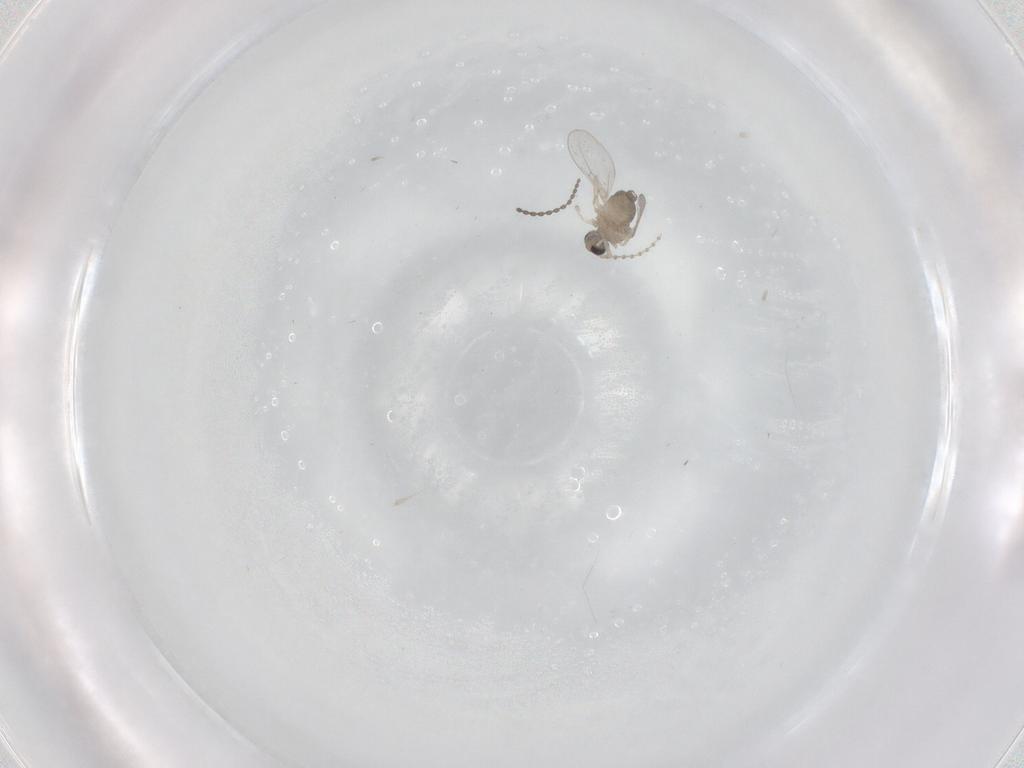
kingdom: Animalia
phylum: Arthropoda
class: Insecta
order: Diptera
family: Cecidomyiidae
